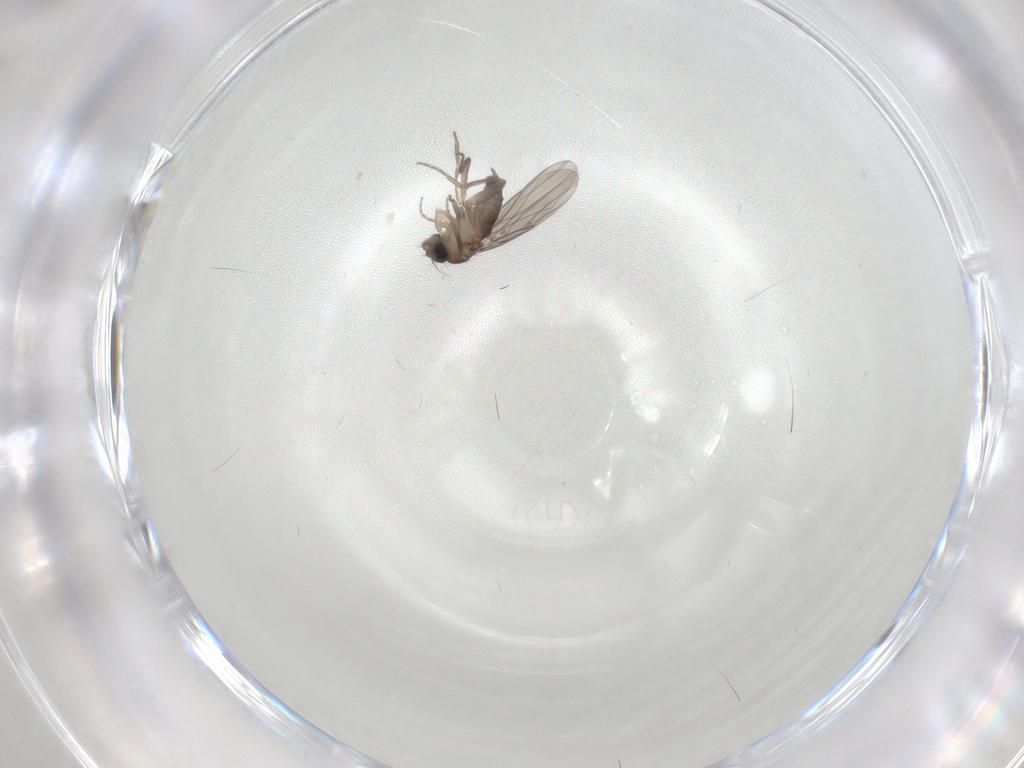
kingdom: Animalia
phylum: Arthropoda
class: Insecta
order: Diptera
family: Phoridae
